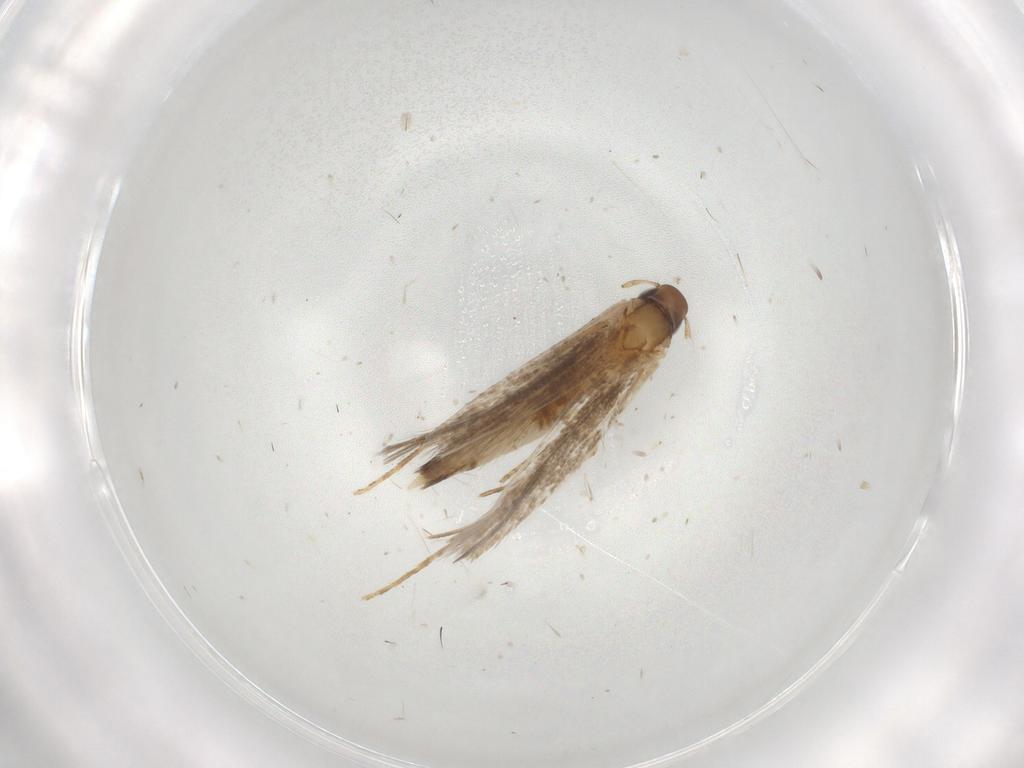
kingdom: Animalia
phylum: Arthropoda
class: Insecta
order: Lepidoptera
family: Crambidae
